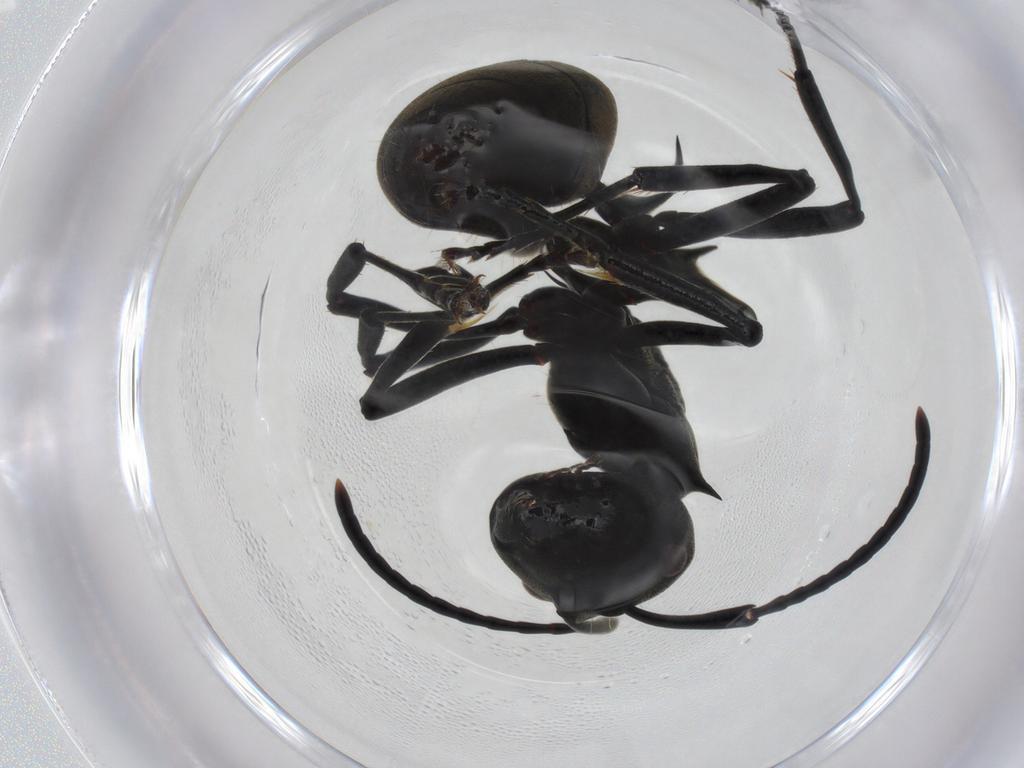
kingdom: Animalia
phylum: Arthropoda
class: Insecta
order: Hymenoptera
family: Formicidae
